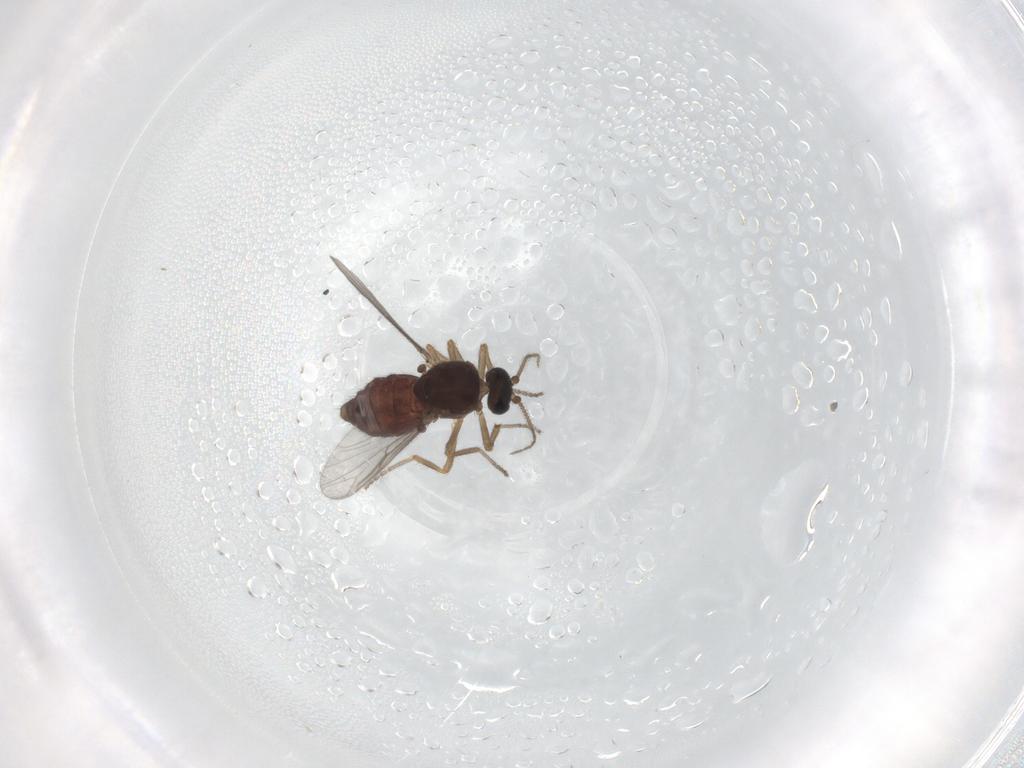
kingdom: Animalia
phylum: Arthropoda
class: Insecta
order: Diptera
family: Ceratopogonidae
